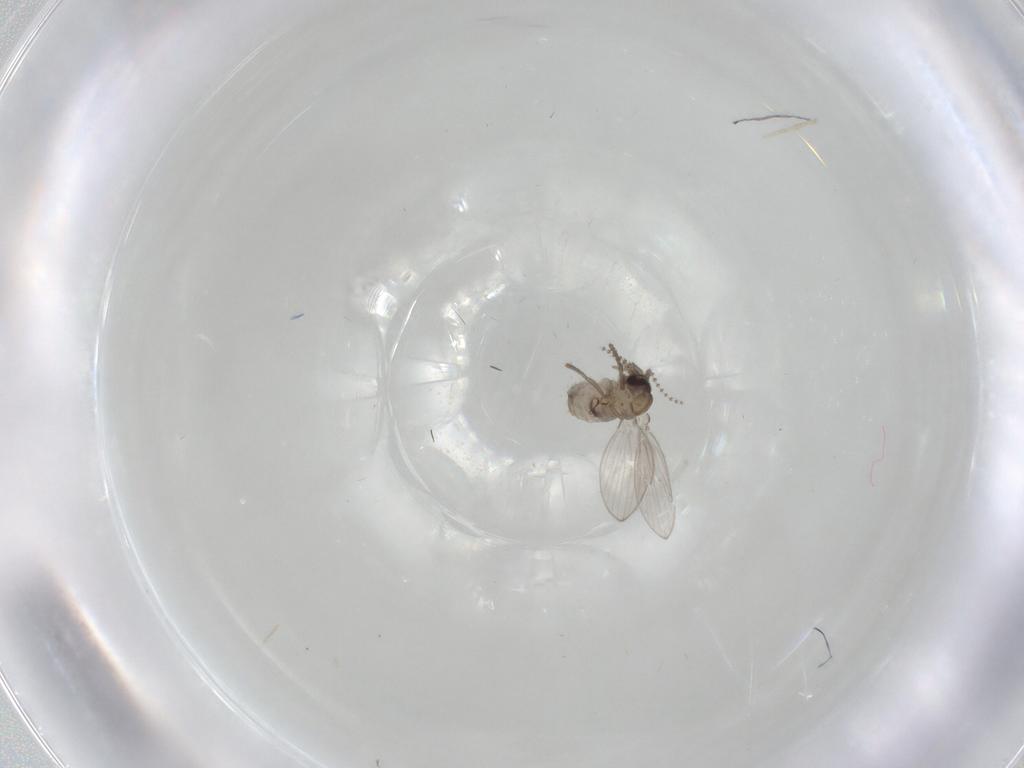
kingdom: Animalia
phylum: Arthropoda
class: Insecta
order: Diptera
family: Psychodidae
